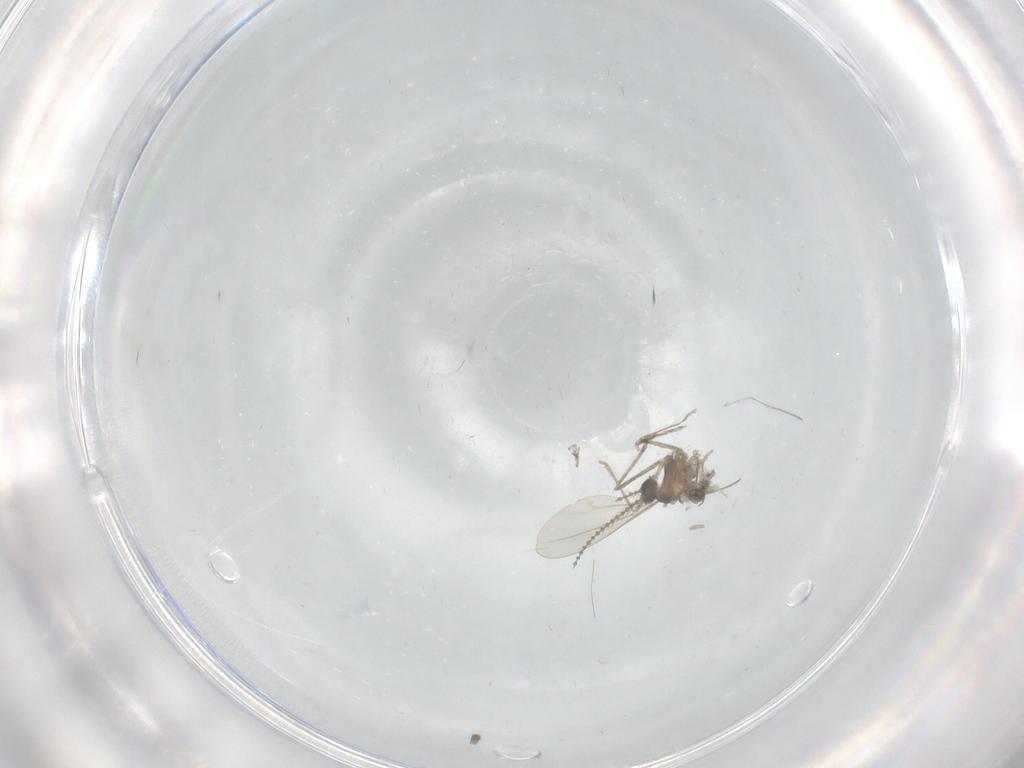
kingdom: Animalia
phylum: Arthropoda
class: Insecta
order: Diptera
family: Cecidomyiidae
